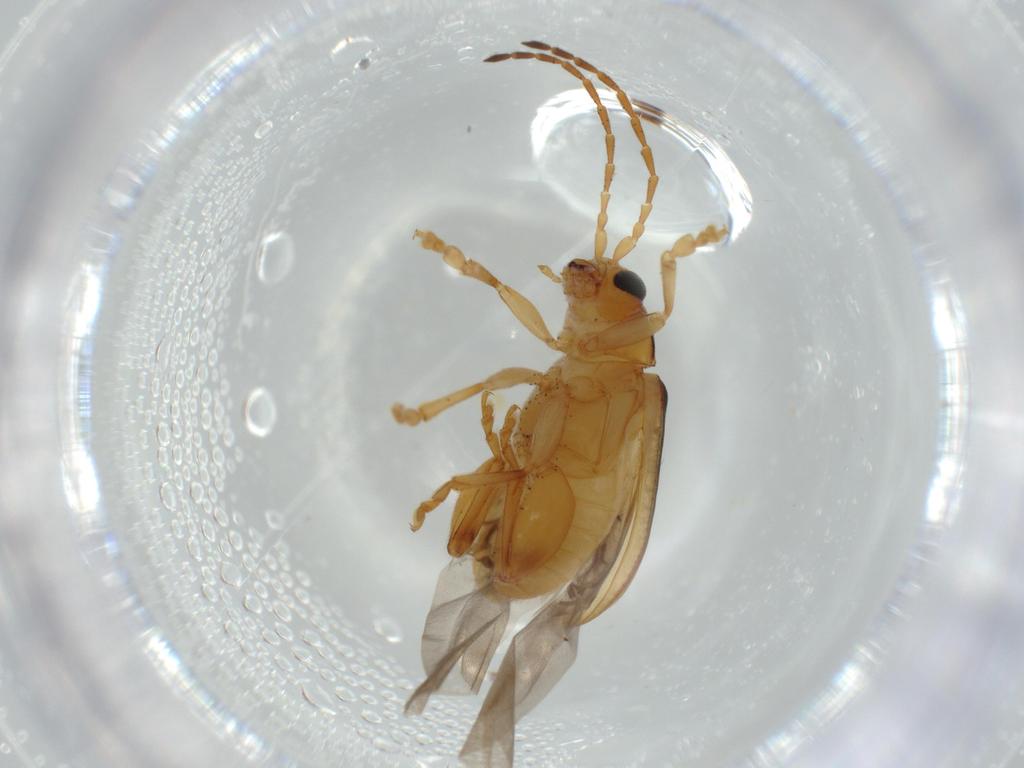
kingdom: Animalia
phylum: Arthropoda
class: Insecta
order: Coleoptera
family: Chrysomelidae
